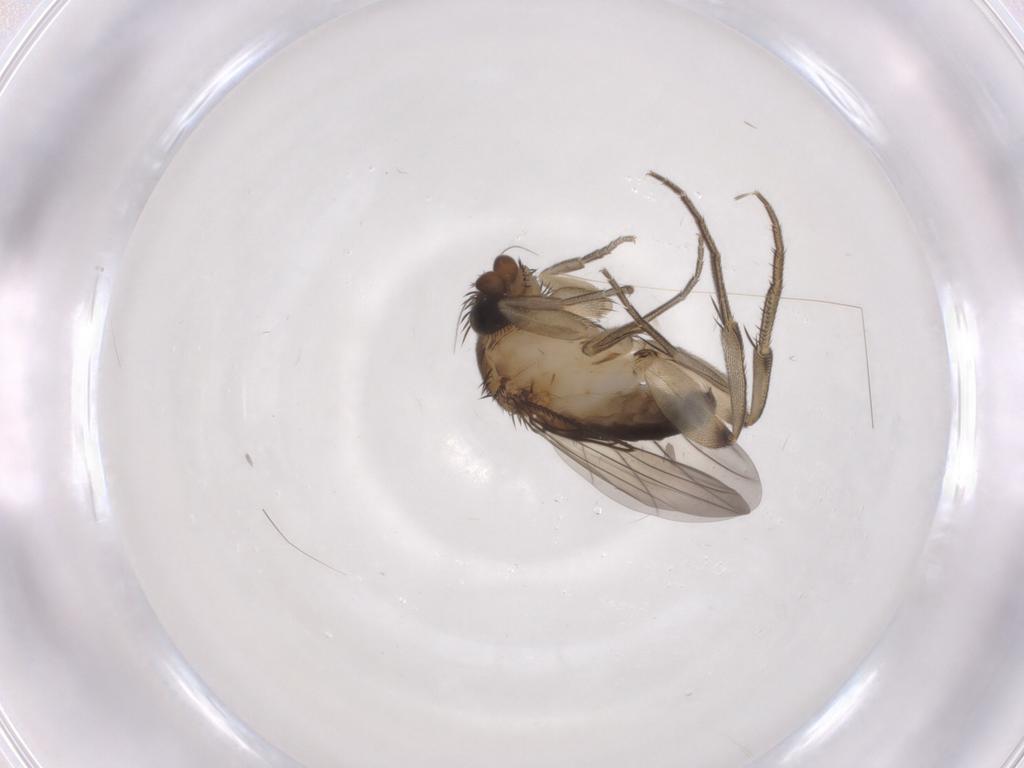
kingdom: Animalia
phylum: Arthropoda
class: Insecta
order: Diptera
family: Phoridae
